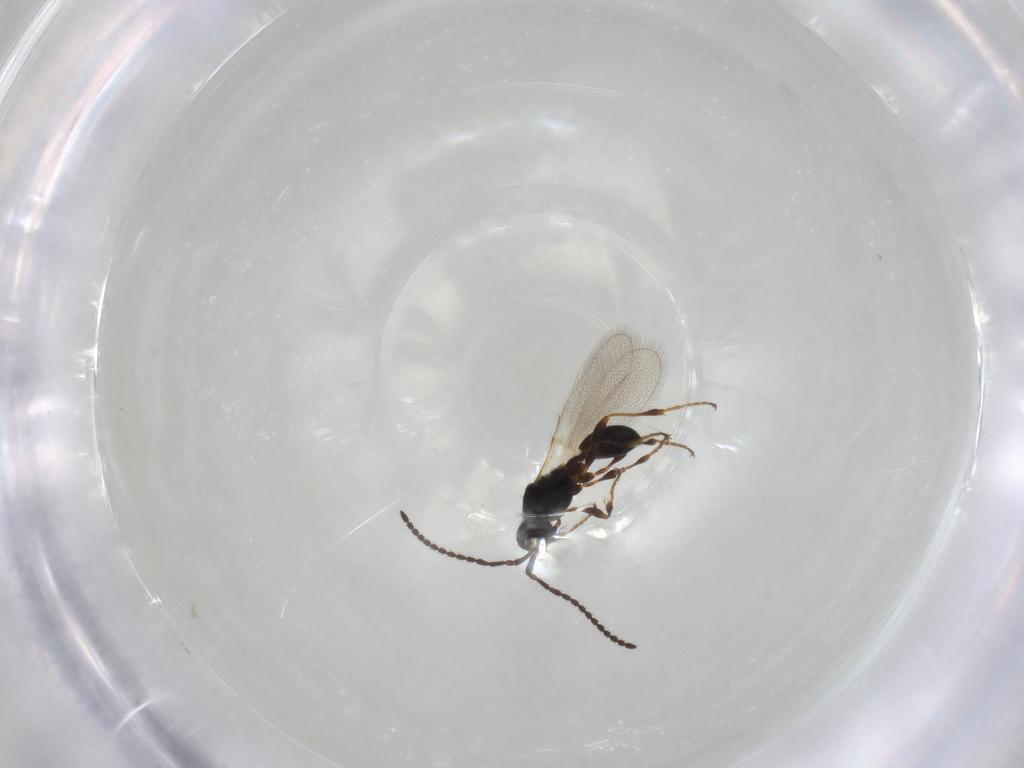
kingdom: Animalia
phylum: Arthropoda
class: Insecta
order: Hymenoptera
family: Diapriidae
